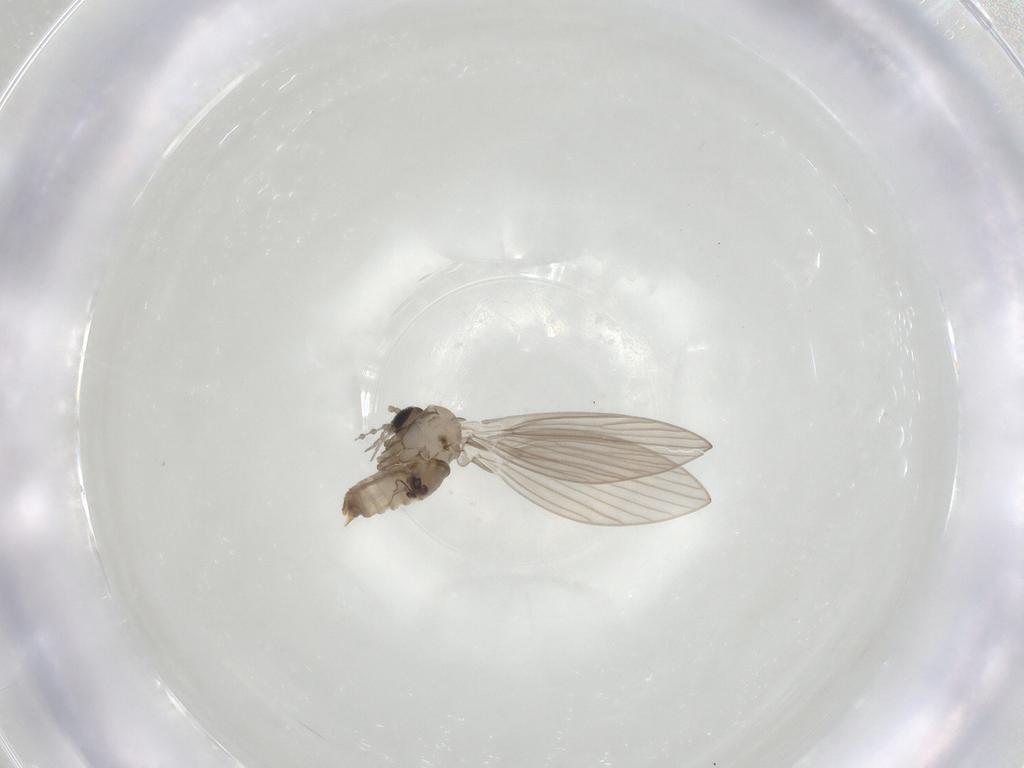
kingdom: Animalia
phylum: Arthropoda
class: Insecta
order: Diptera
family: Psychodidae
